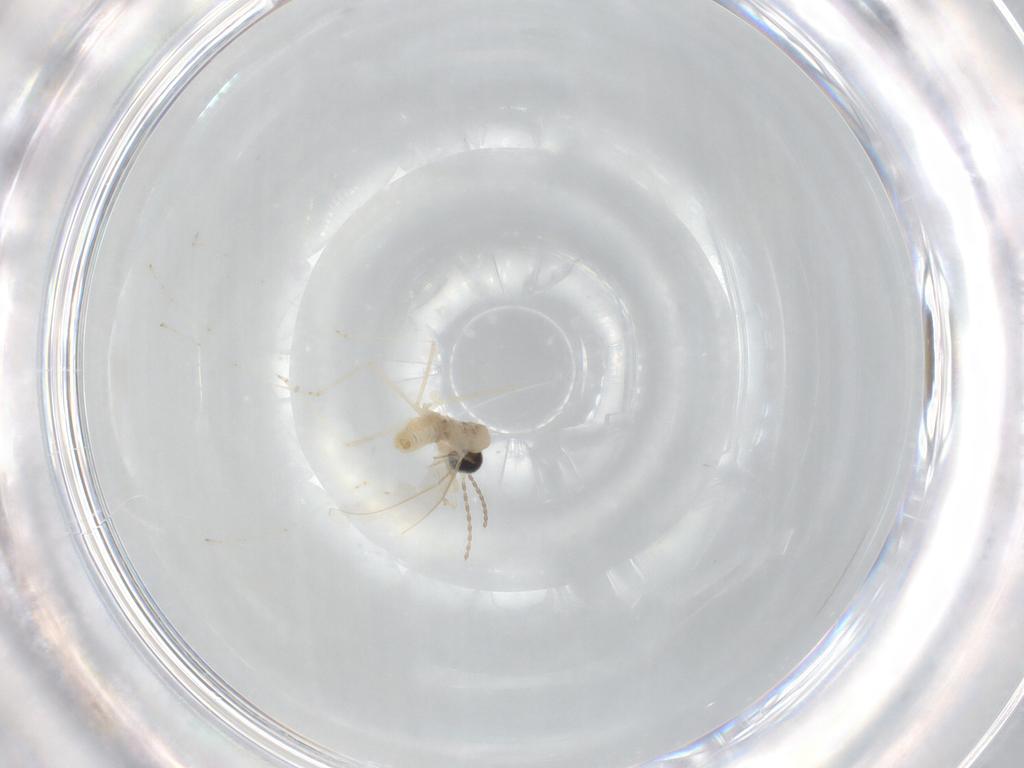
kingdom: Animalia
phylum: Arthropoda
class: Insecta
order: Diptera
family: Cecidomyiidae
